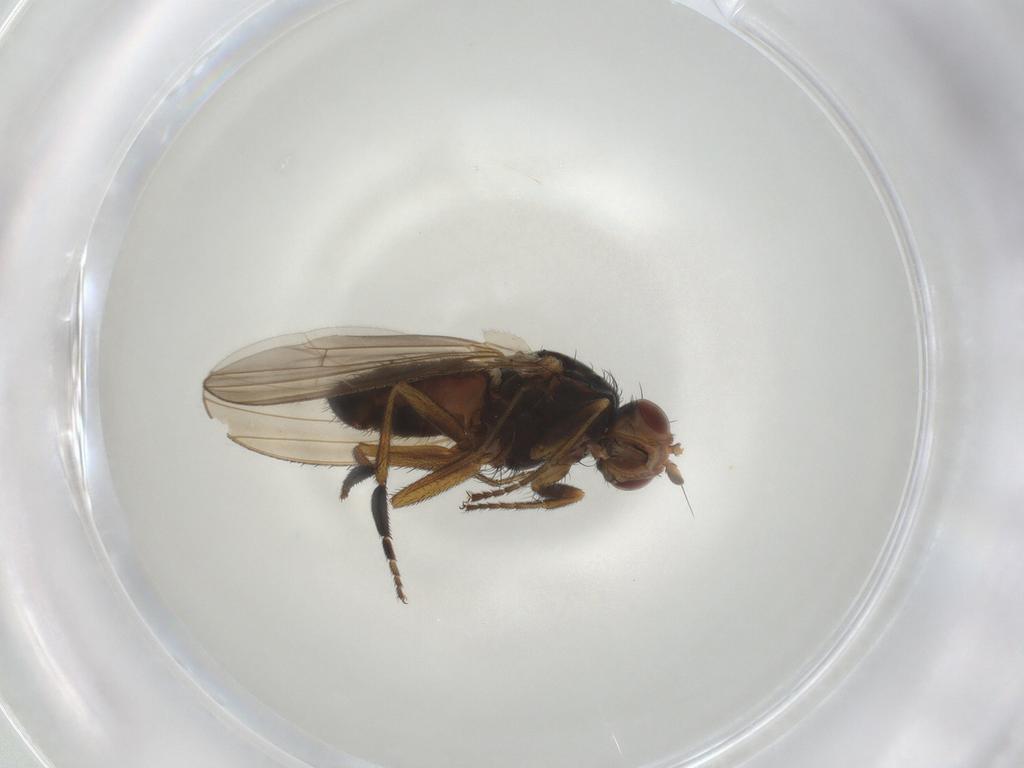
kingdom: Animalia
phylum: Arthropoda
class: Insecta
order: Diptera
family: Heleomyzidae
